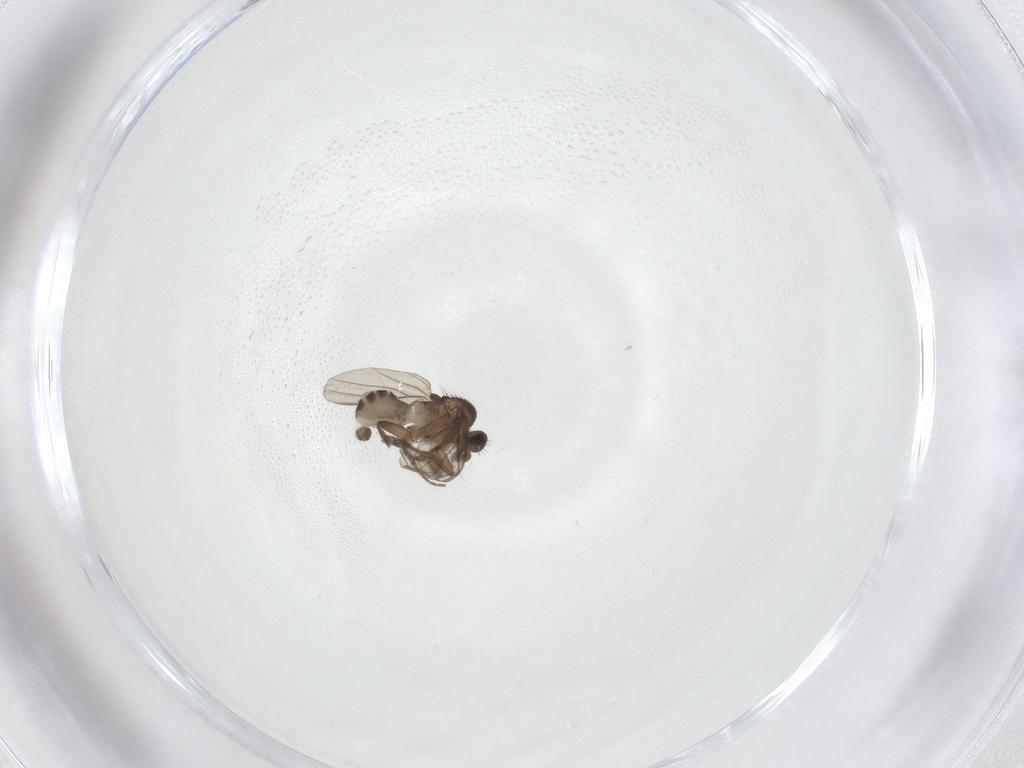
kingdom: Animalia
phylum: Arthropoda
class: Insecta
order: Diptera
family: Phoridae
